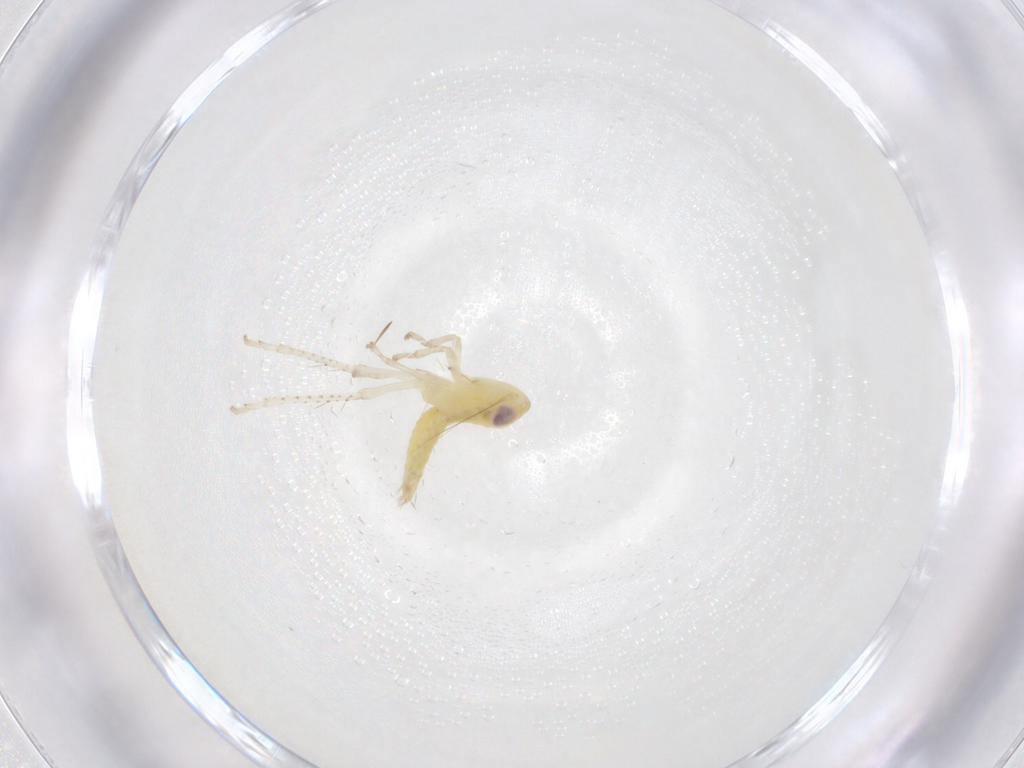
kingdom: Animalia
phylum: Arthropoda
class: Insecta
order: Hemiptera
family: Cicadellidae
